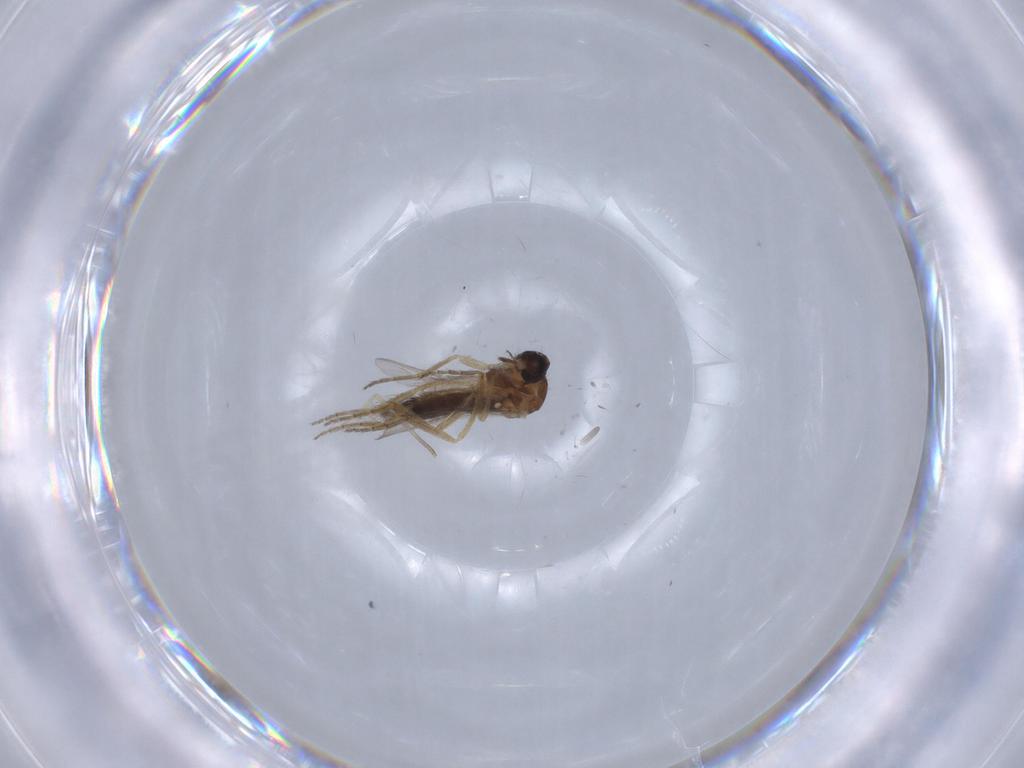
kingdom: Animalia
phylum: Arthropoda
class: Insecta
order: Diptera
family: Ceratopogonidae
